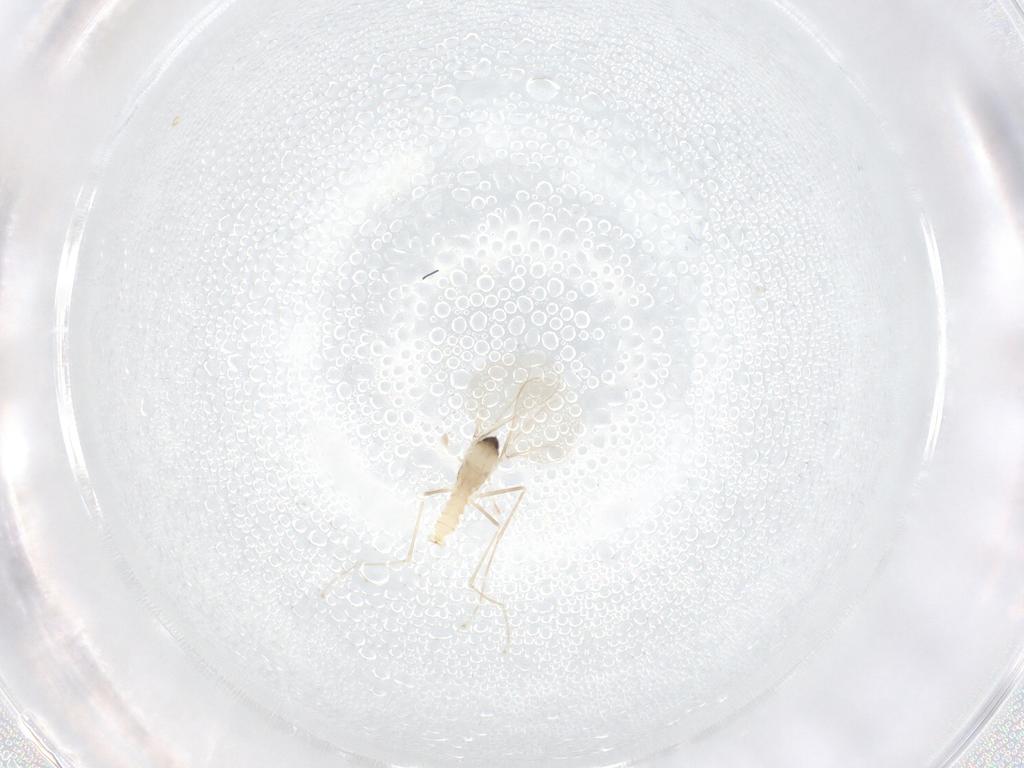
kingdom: Animalia
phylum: Arthropoda
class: Insecta
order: Diptera
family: Cecidomyiidae
